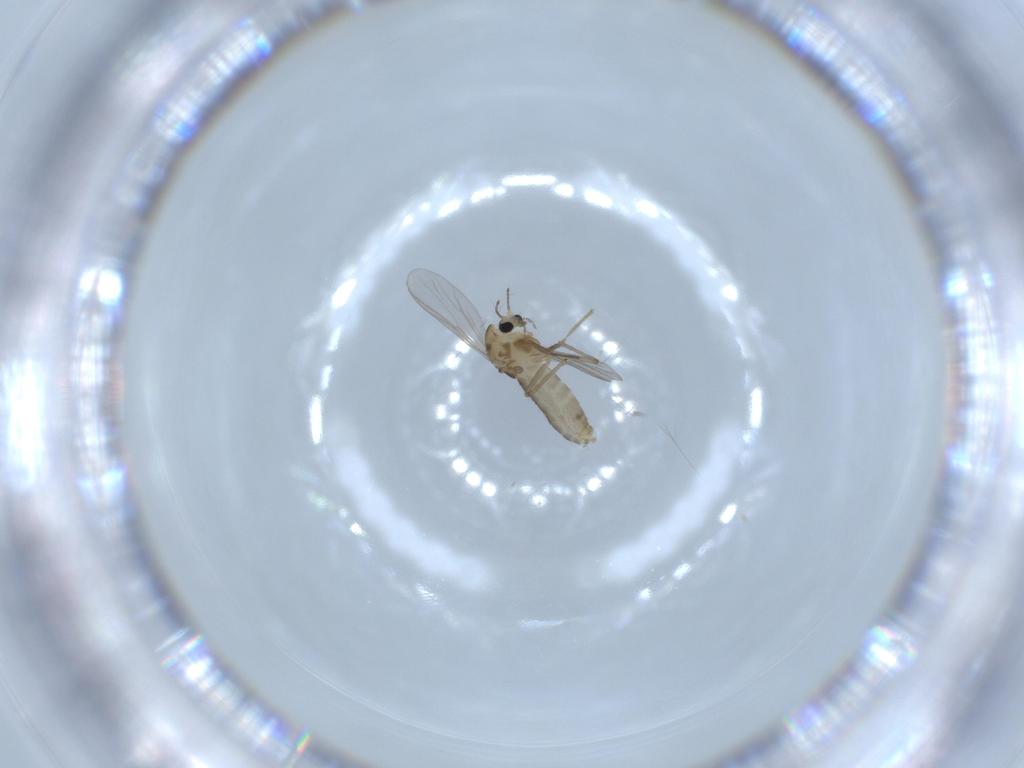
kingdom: Animalia
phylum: Arthropoda
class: Insecta
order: Diptera
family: Chironomidae
